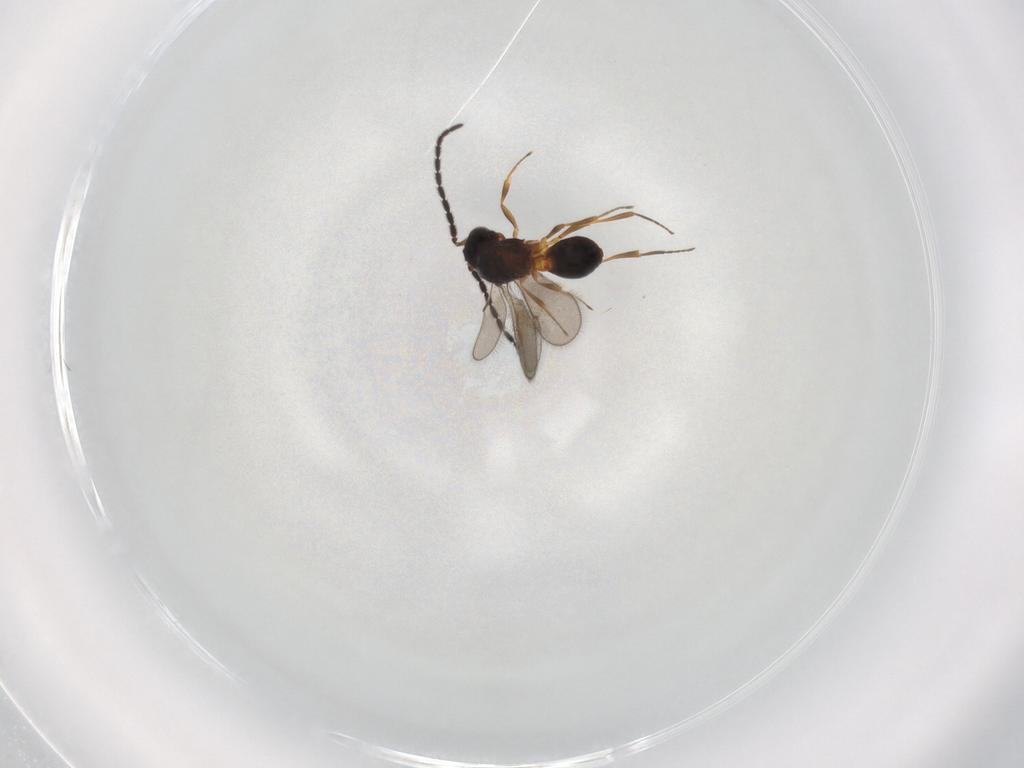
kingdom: Animalia
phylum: Arthropoda
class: Insecta
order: Hymenoptera
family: Scelionidae
